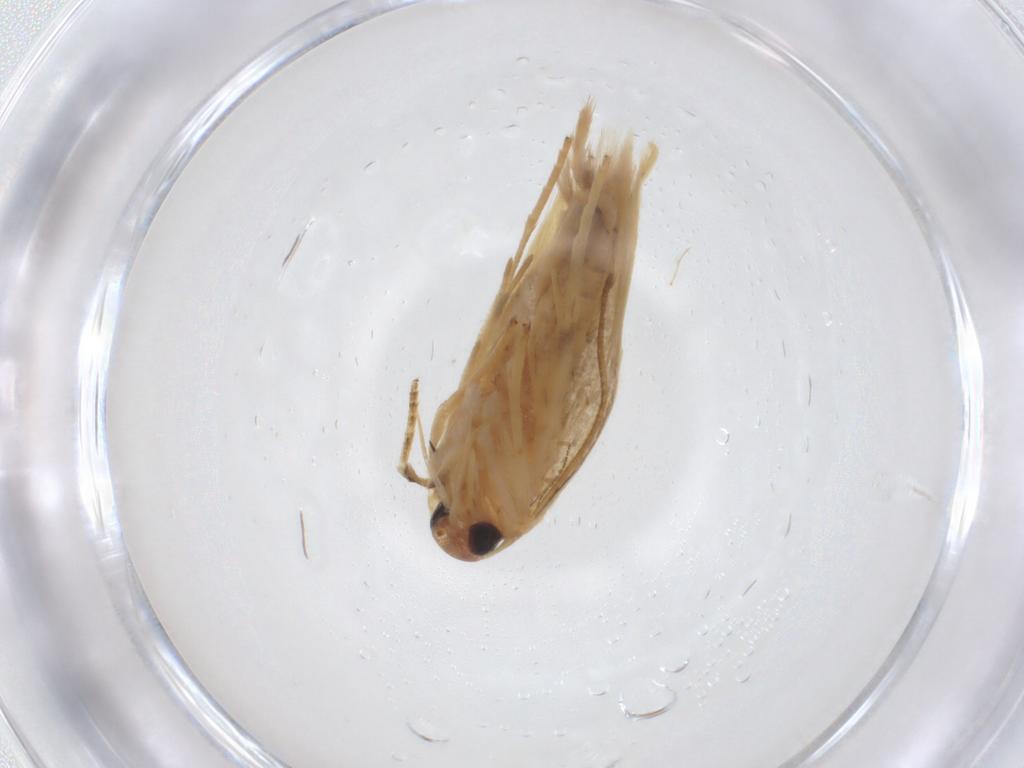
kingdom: Animalia
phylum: Arthropoda
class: Insecta
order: Lepidoptera
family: Erebidae
